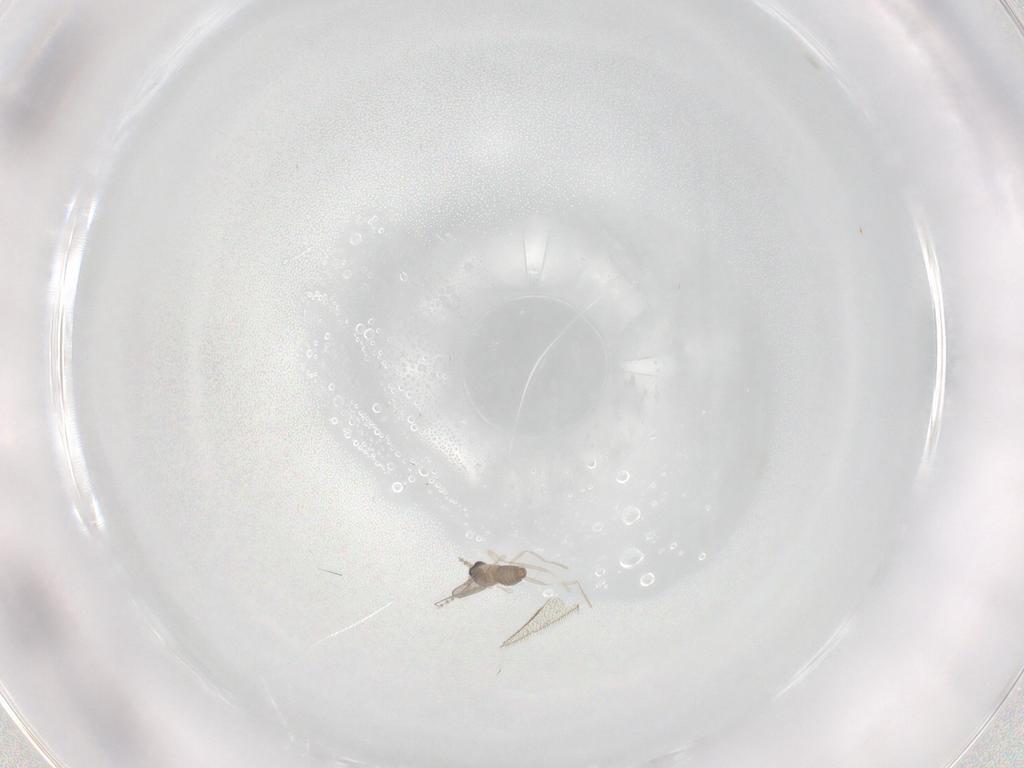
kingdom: Animalia
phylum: Arthropoda
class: Insecta
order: Diptera
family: Cecidomyiidae
